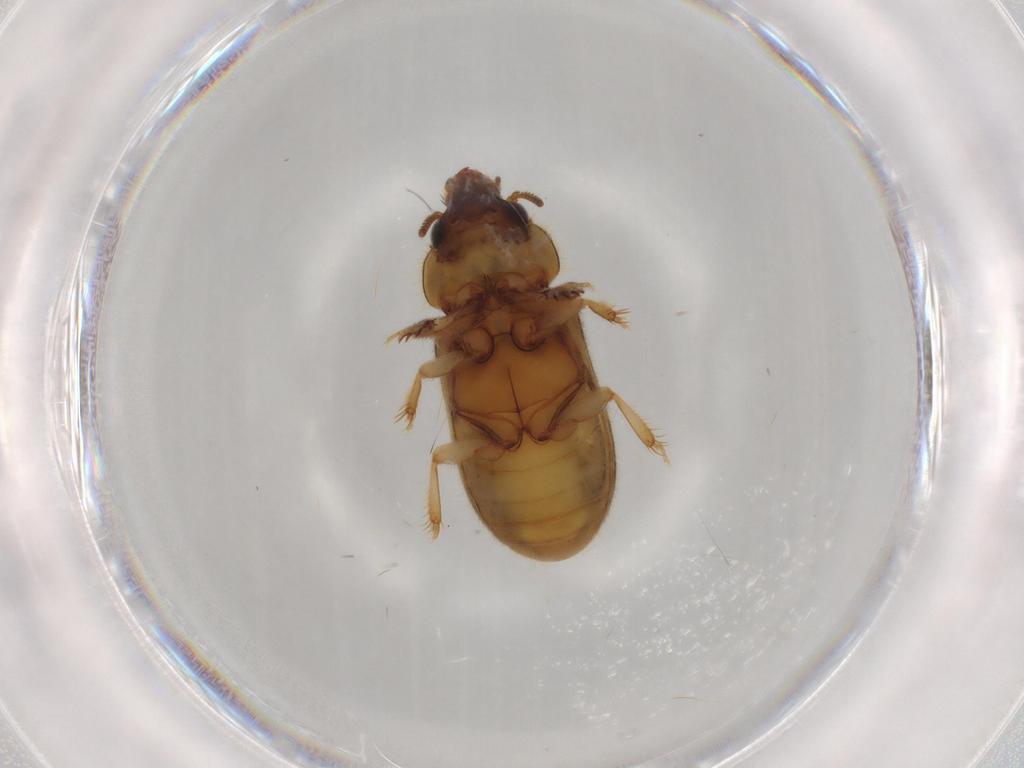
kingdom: Animalia
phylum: Arthropoda
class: Insecta
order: Coleoptera
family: Heteroceridae
